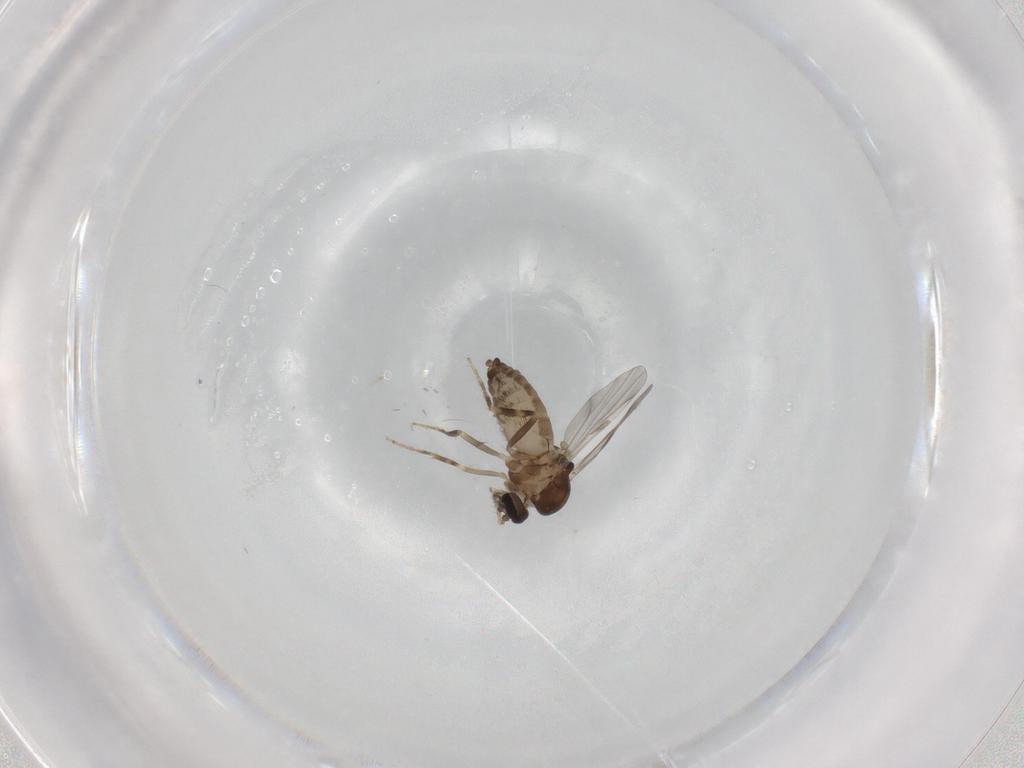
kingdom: Animalia
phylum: Arthropoda
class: Insecta
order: Diptera
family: Ceratopogonidae
